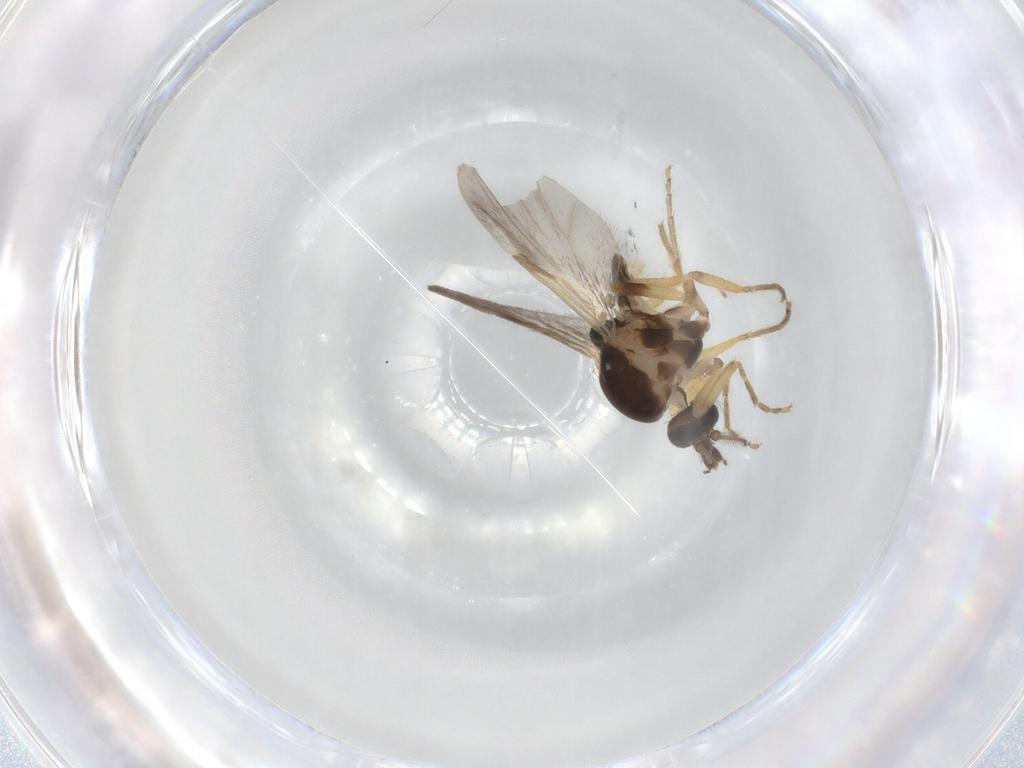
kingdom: Animalia
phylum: Arthropoda
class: Insecta
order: Diptera
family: Ceratopogonidae
